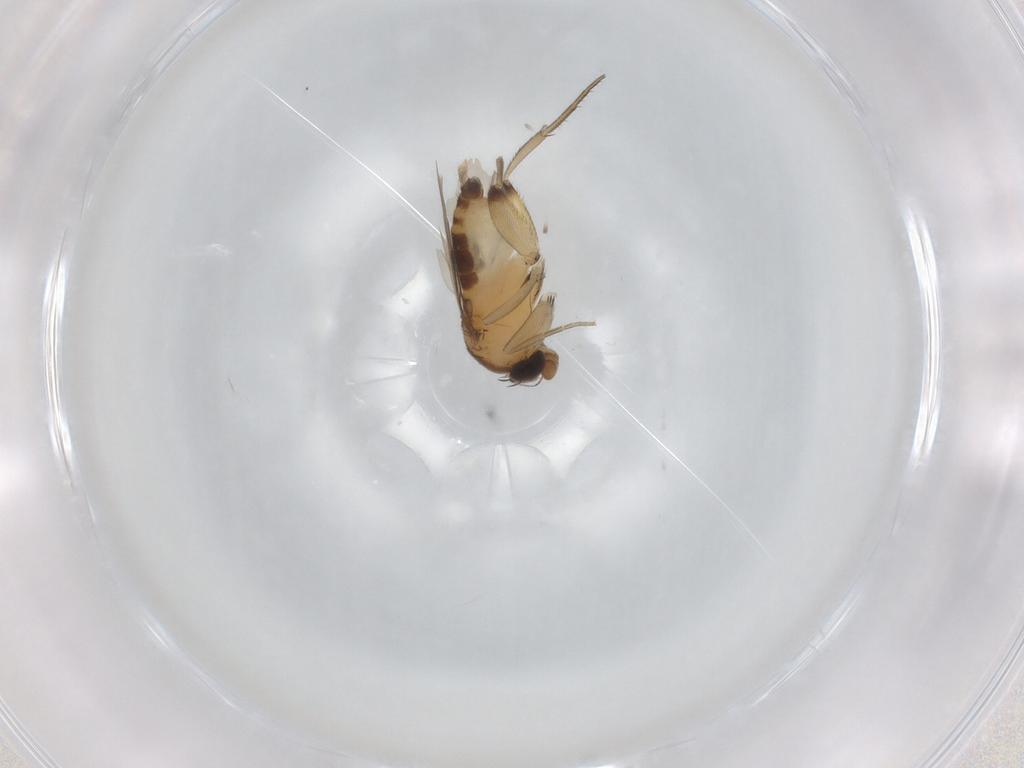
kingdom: Animalia
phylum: Arthropoda
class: Insecta
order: Diptera
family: Phoridae
